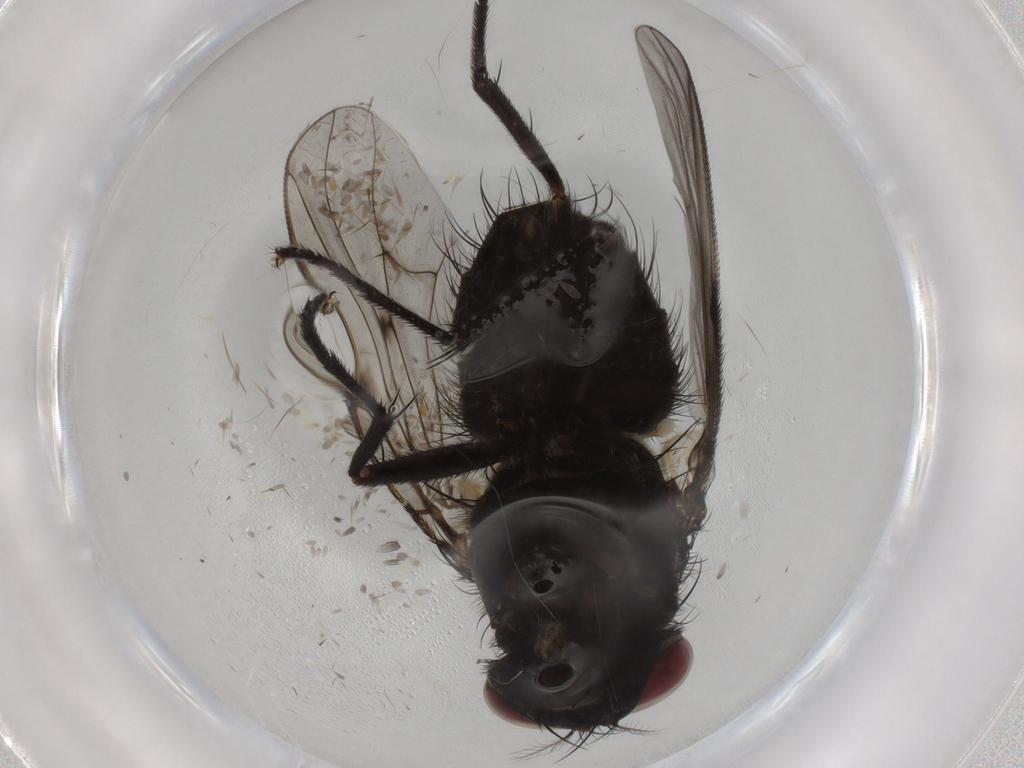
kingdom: Animalia
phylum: Arthropoda
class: Insecta
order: Diptera
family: Cecidomyiidae
